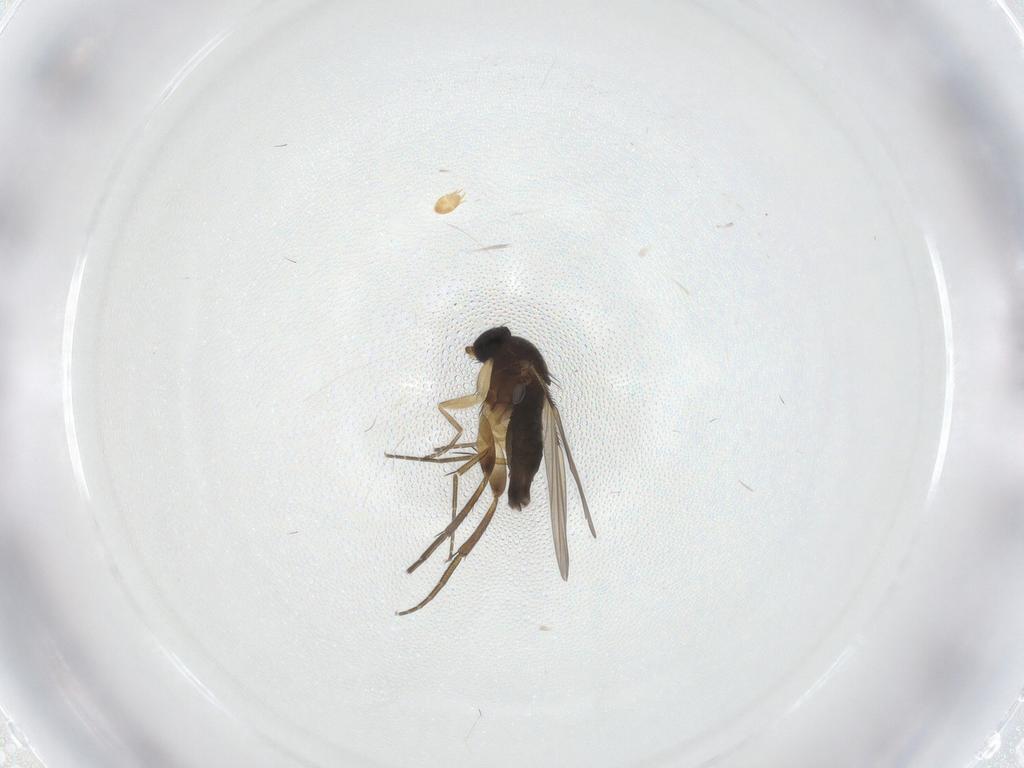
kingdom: Animalia
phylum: Arthropoda
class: Insecta
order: Diptera
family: Phoridae
